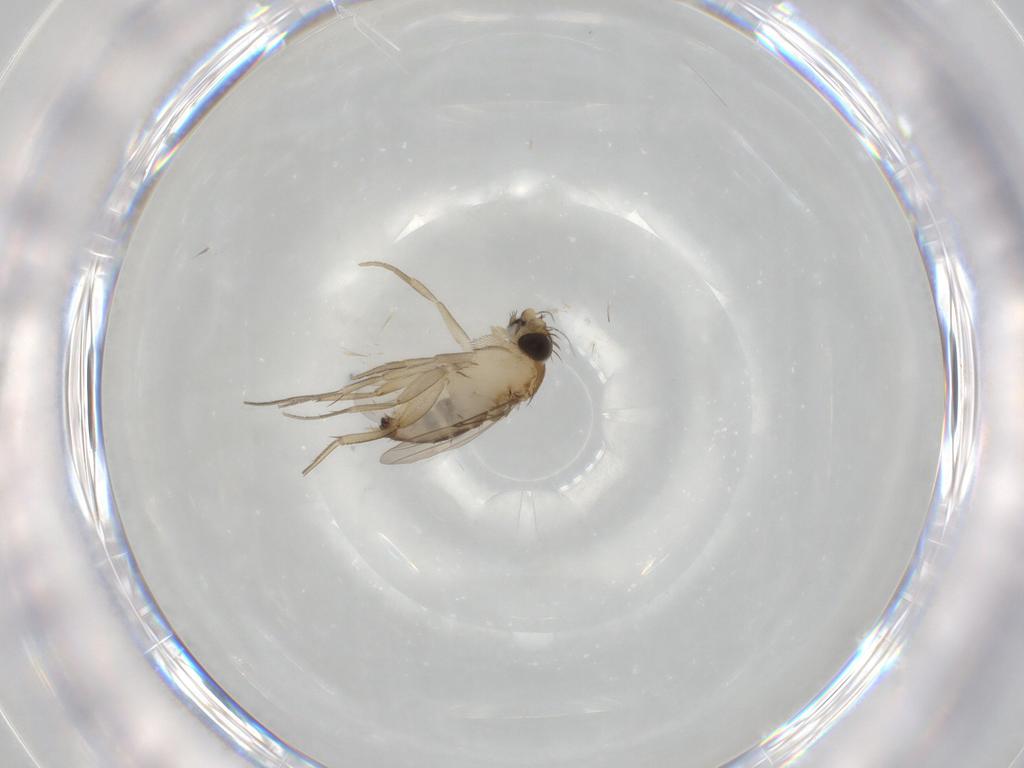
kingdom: Animalia
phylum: Arthropoda
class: Insecta
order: Diptera
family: Phoridae
